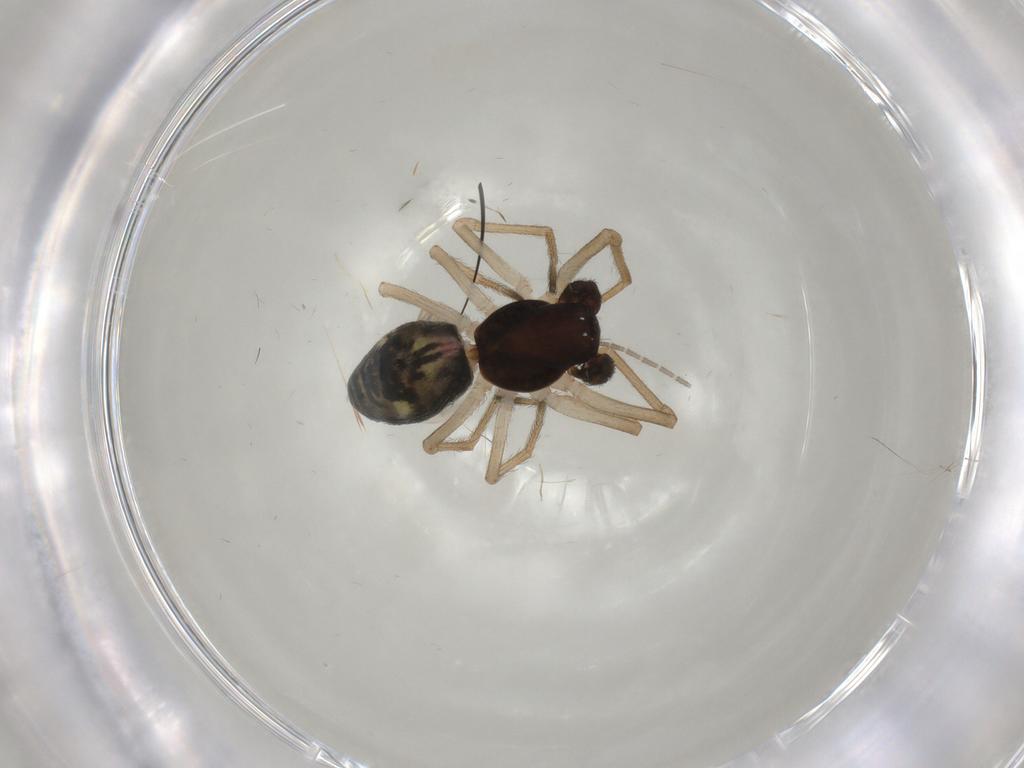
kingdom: Animalia
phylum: Arthropoda
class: Arachnida
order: Araneae
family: Dictynidae
